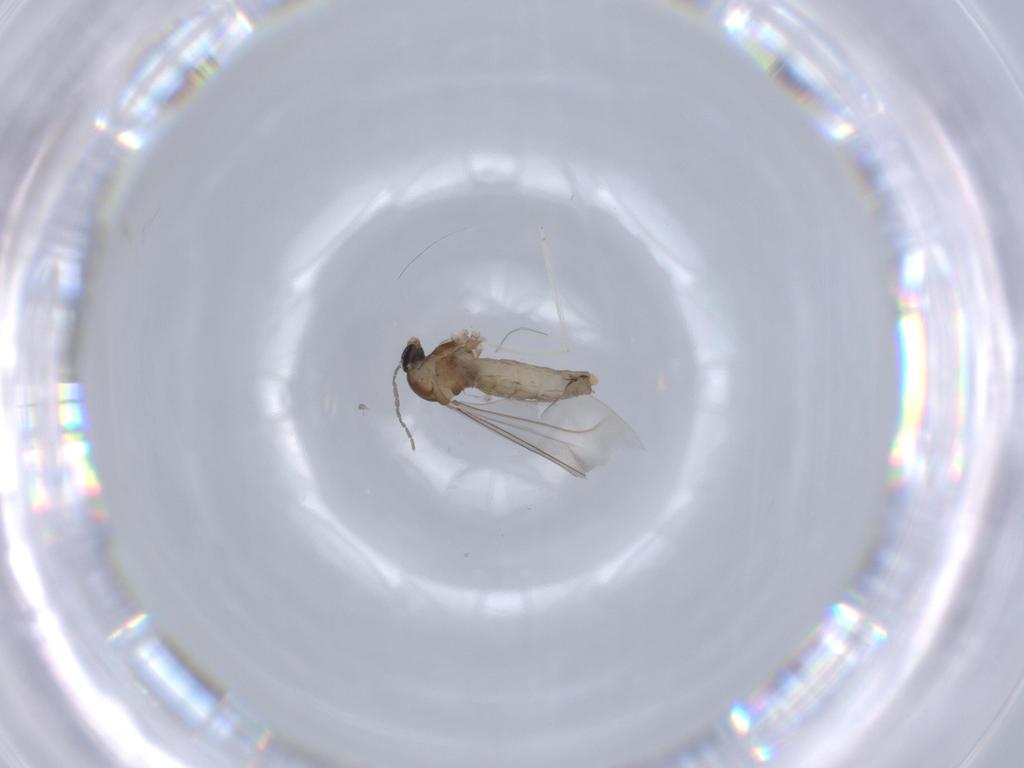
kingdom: Animalia
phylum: Arthropoda
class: Insecta
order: Diptera
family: Cecidomyiidae
